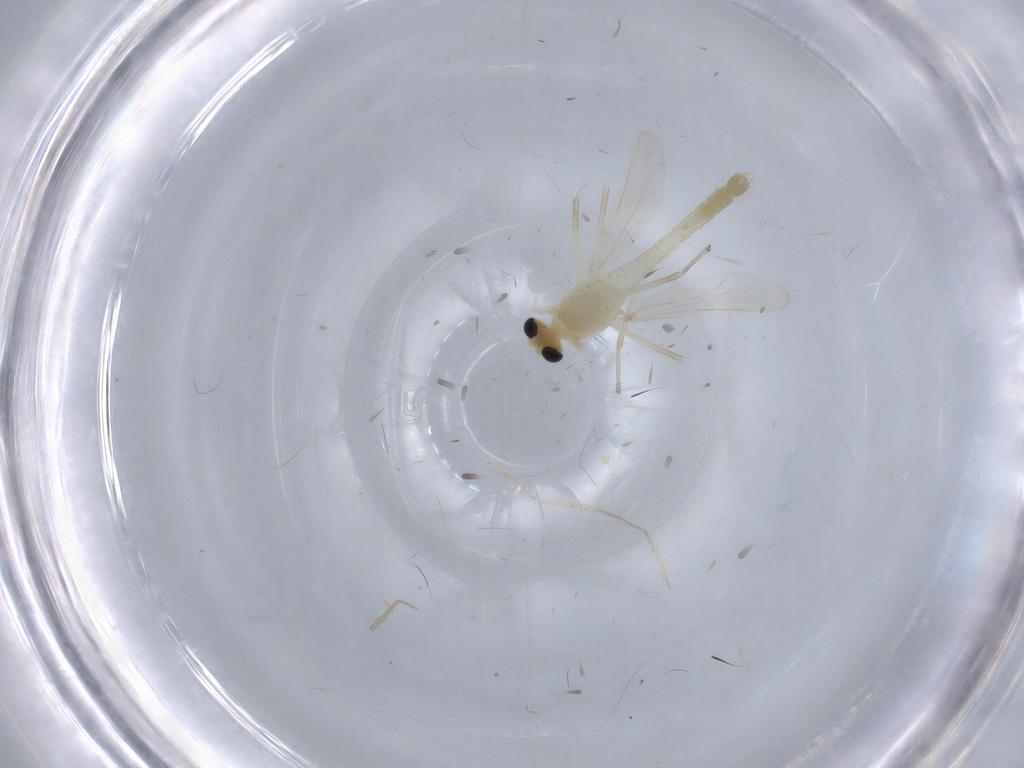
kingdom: Animalia
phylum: Arthropoda
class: Insecta
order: Diptera
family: Chironomidae
